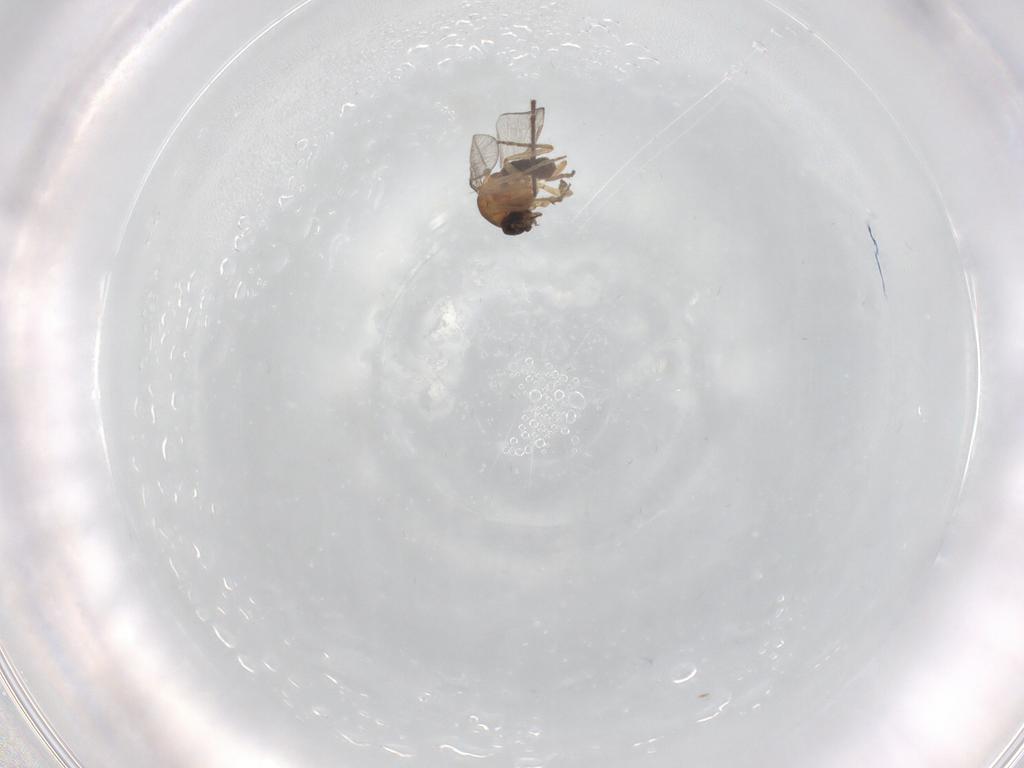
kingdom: Animalia
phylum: Arthropoda
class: Insecta
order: Diptera
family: Ceratopogonidae
